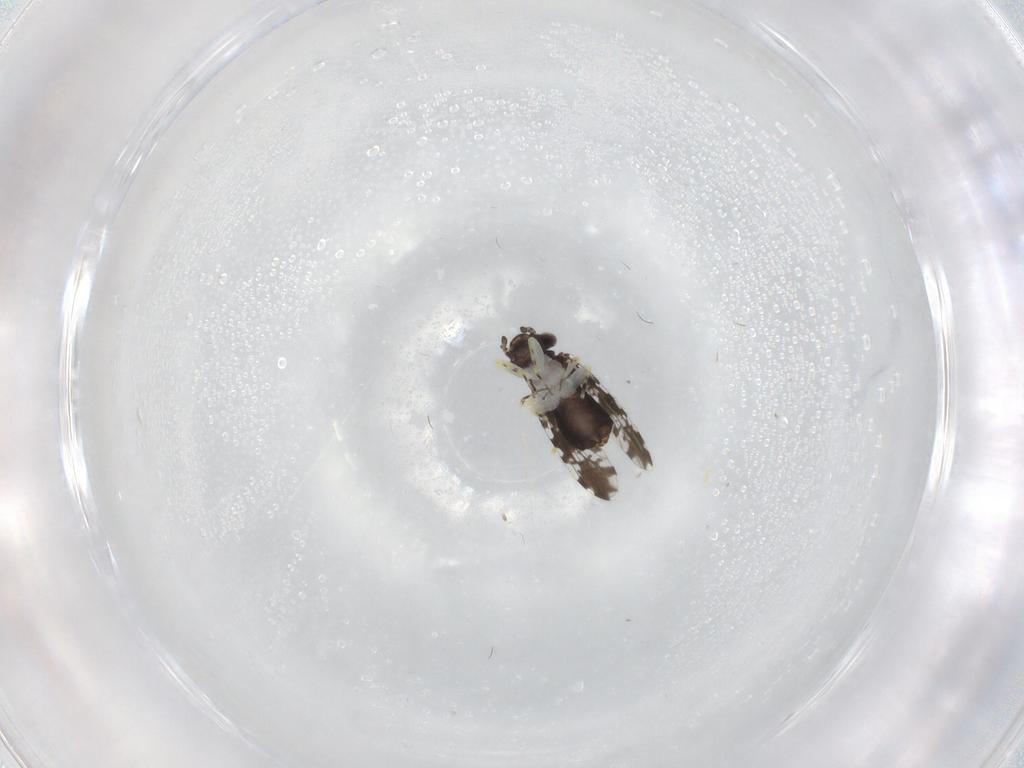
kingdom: Animalia
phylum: Arthropoda
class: Insecta
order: Psocodea
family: Psoquillidae
